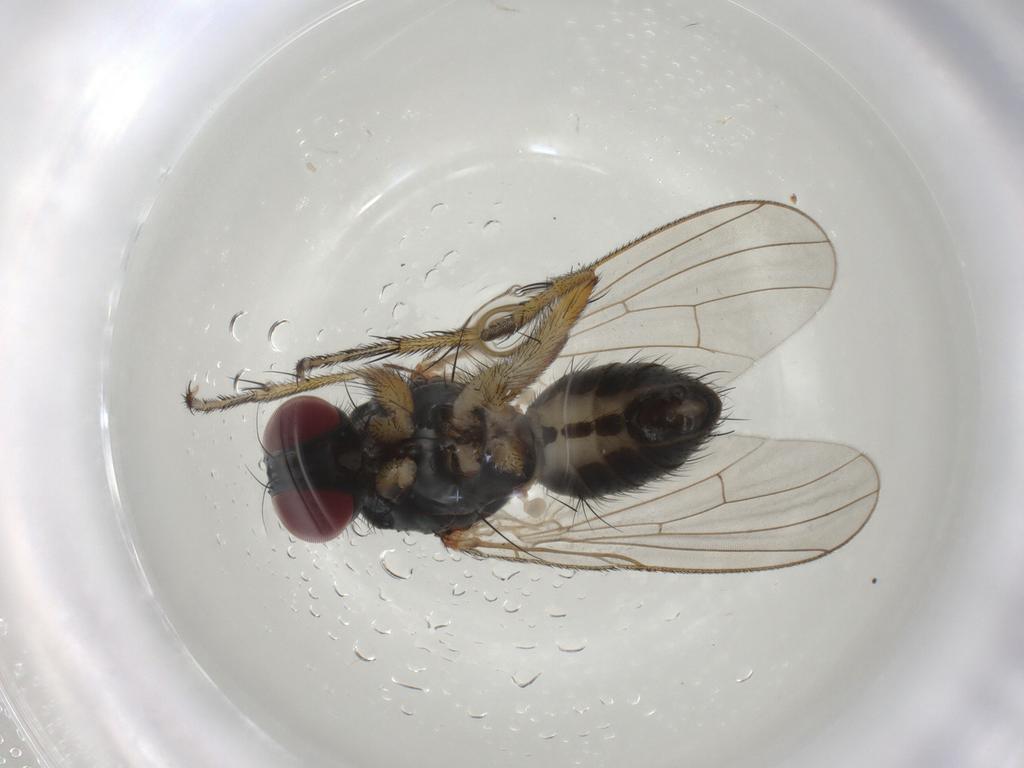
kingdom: Animalia
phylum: Arthropoda
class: Insecta
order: Diptera
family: Muscidae
